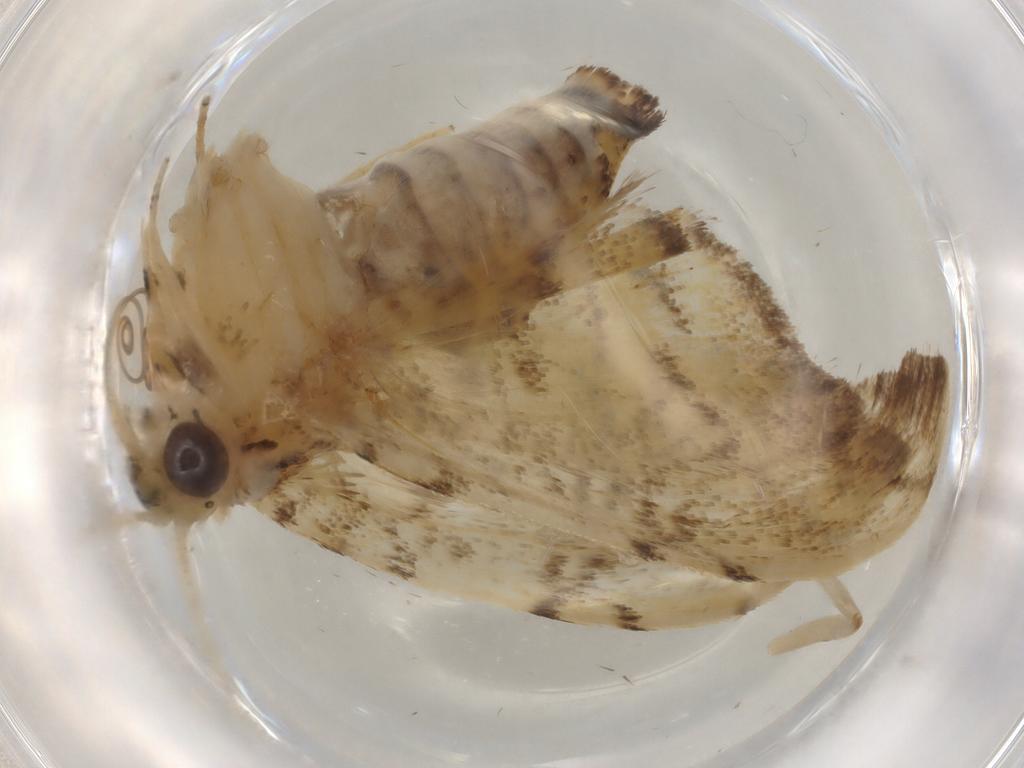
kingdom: Animalia
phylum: Arthropoda
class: Insecta
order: Lepidoptera
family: Crambidae
